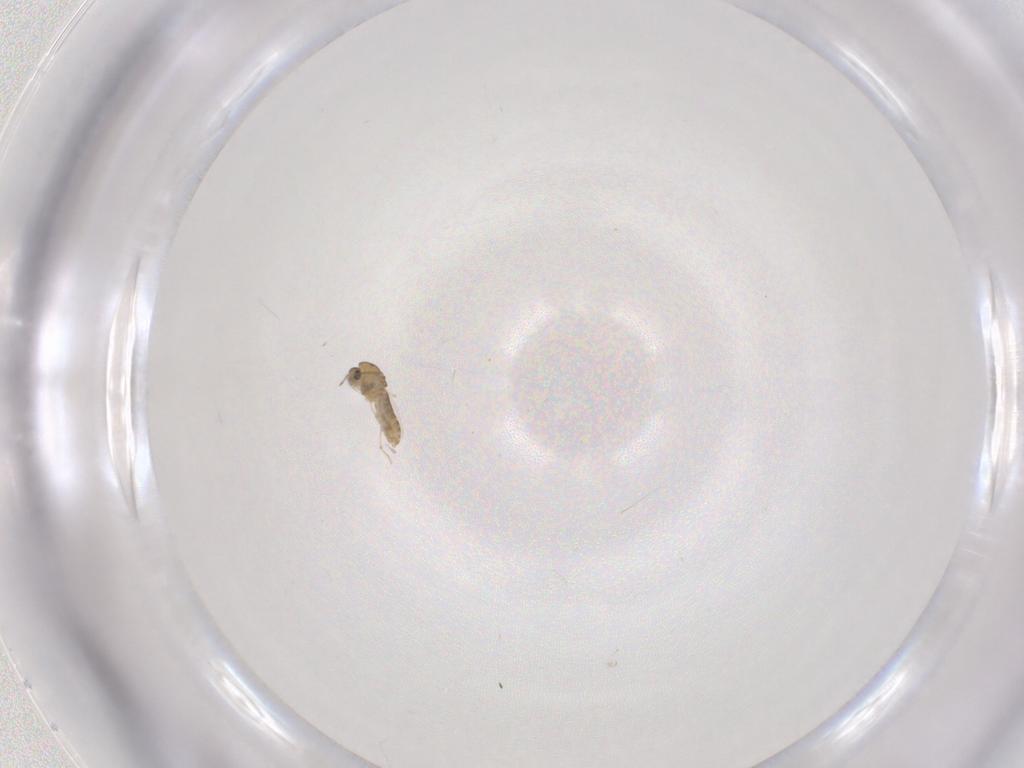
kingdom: Animalia
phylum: Arthropoda
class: Insecta
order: Diptera
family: Chironomidae
